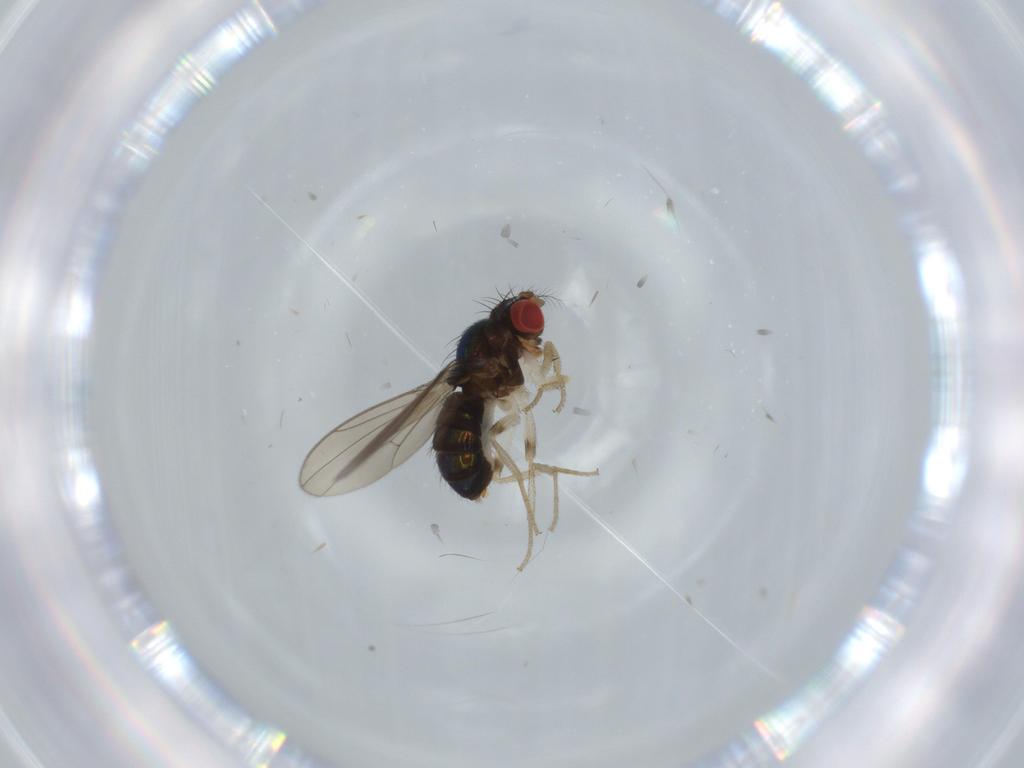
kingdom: Animalia
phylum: Arthropoda
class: Insecta
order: Diptera
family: Drosophilidae
